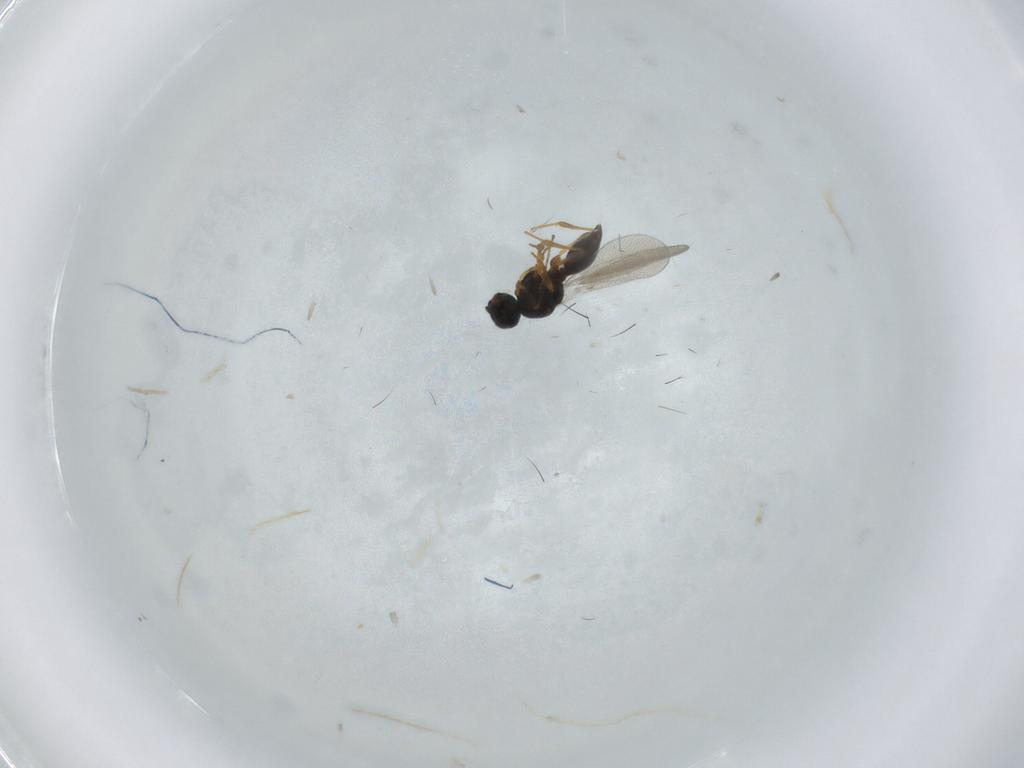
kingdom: Animalia
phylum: Arthropoda
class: Insecta
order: Diptera
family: Mythicomyiidae
